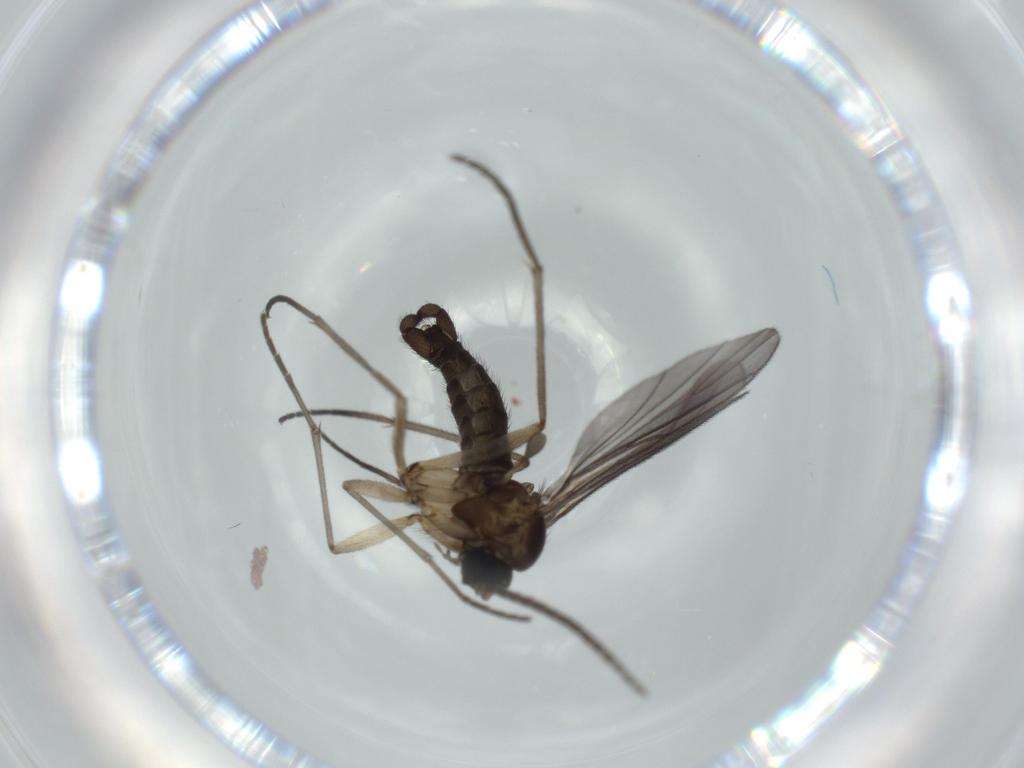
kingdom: Animalia
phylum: Arthropoda
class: Insecta
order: Diptera
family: Sciaridae
